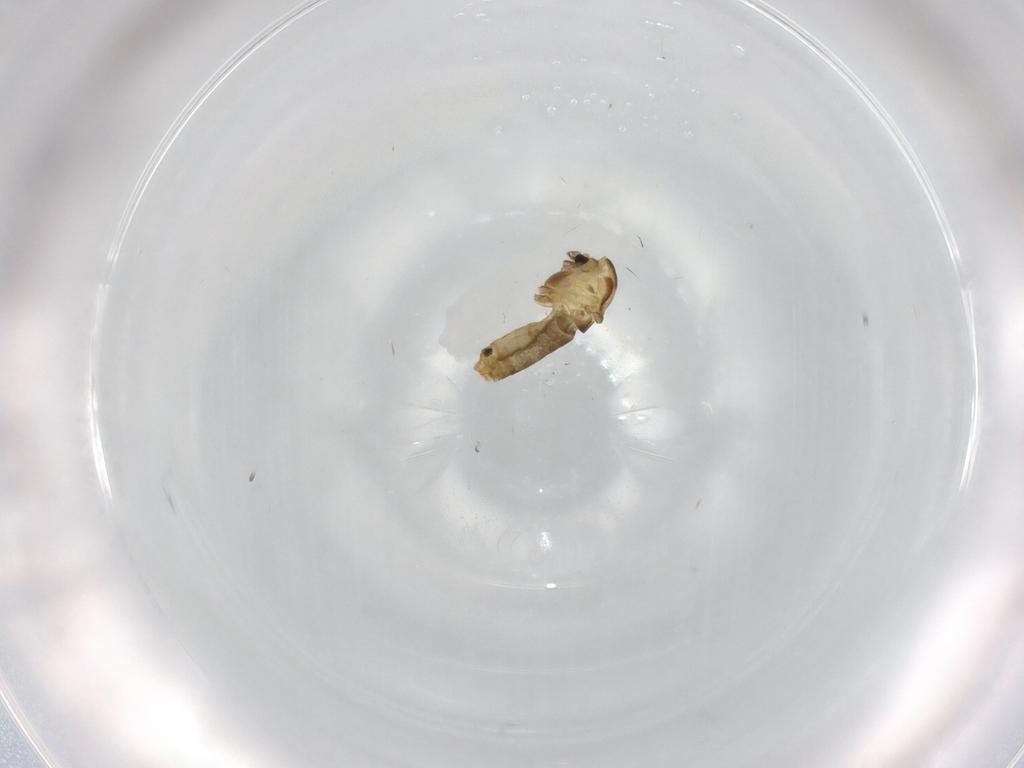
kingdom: Animalia
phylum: Arthropoda
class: Insecta
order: Diptera
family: Chironomidae
